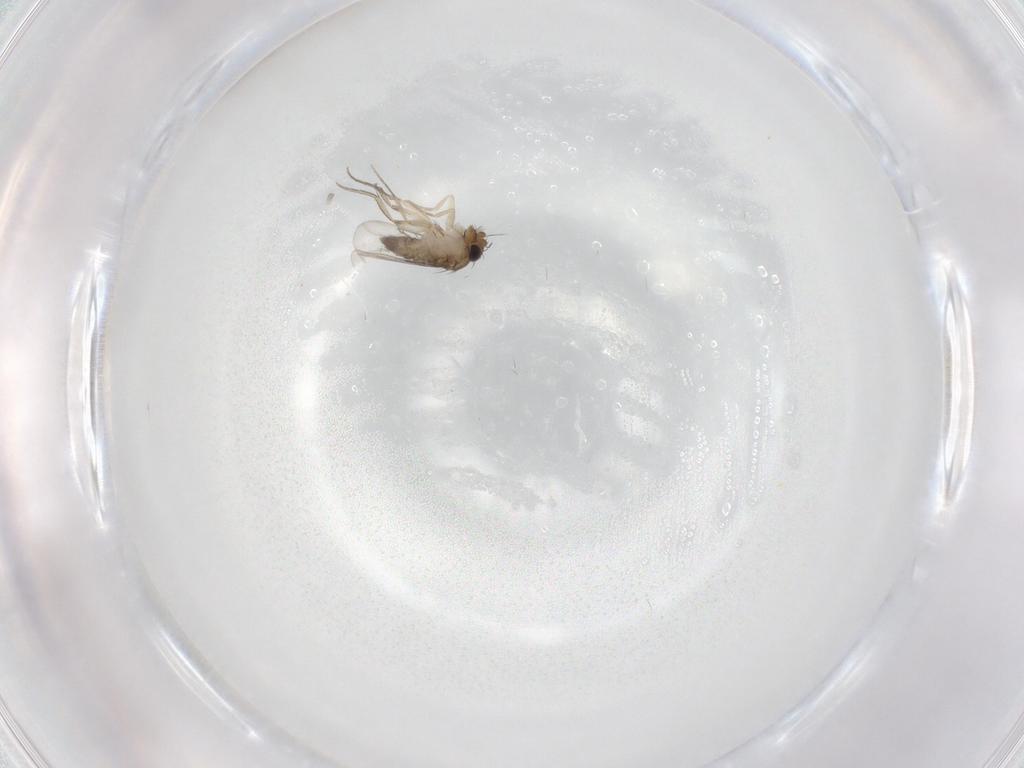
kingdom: Animalia
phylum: Arthropoda
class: Insecta
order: Diptera
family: Phoridae
